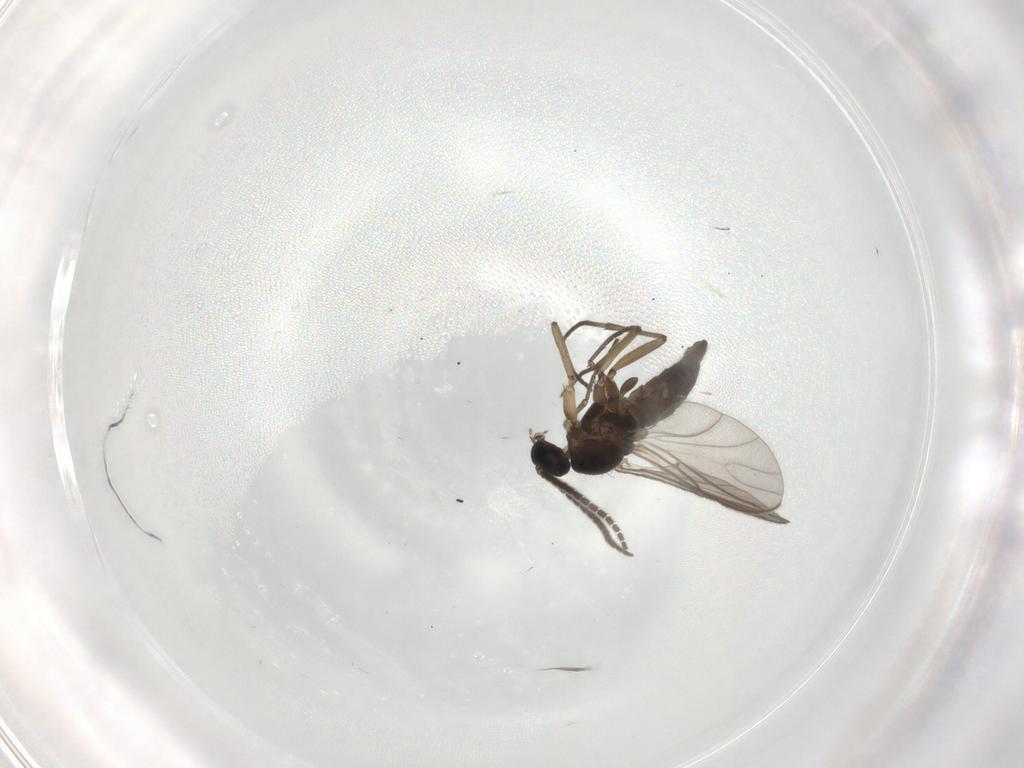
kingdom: Animalia
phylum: Arthropoda
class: Insecta
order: Diptera
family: Sciaridae
